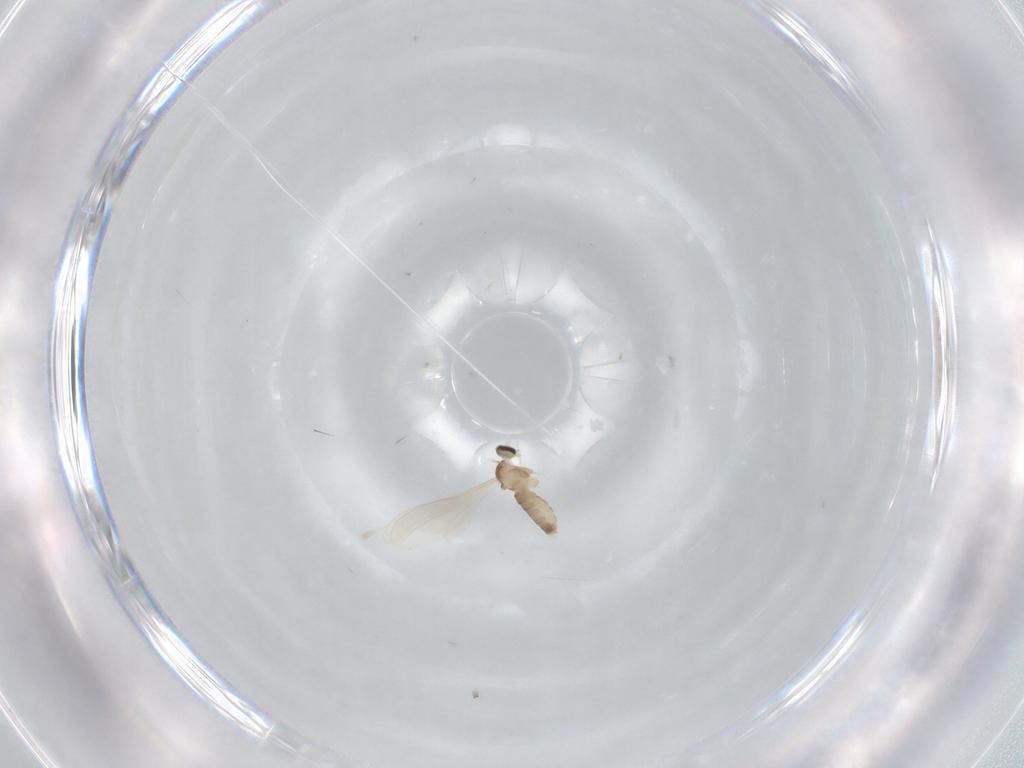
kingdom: Animalia
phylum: Arthropoda
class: Insecta
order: Diptera
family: Cecidomyiidae
